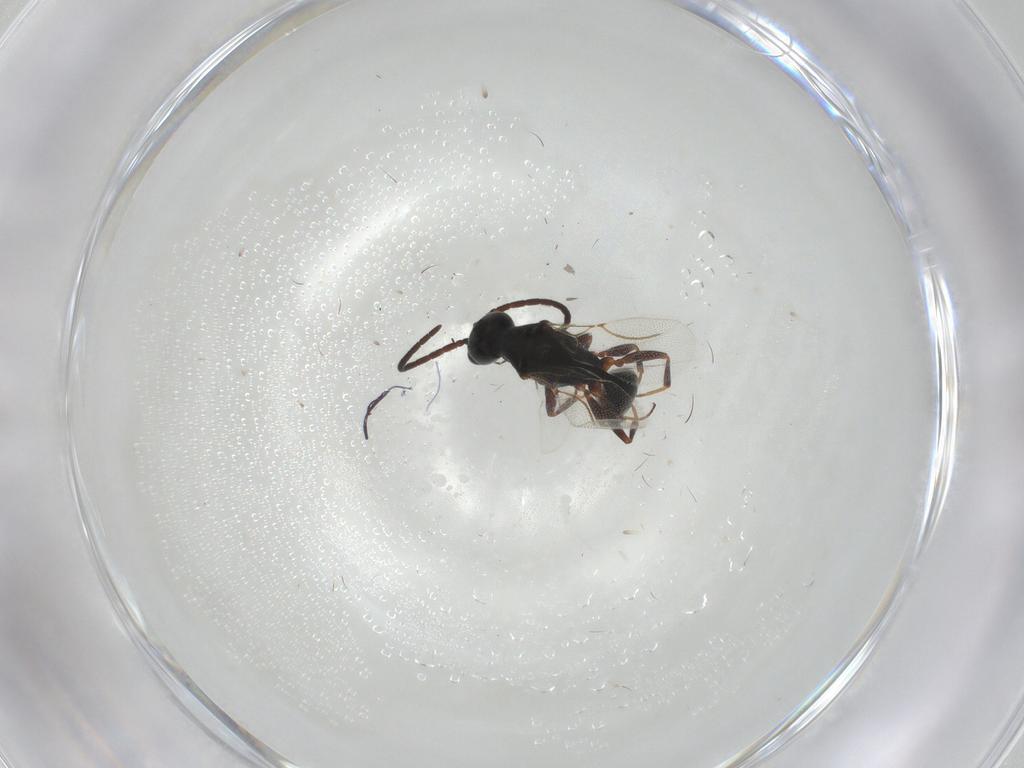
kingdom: Animalia
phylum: Arthropoda
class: Insecta
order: Hymenoptera
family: Bethylidae
